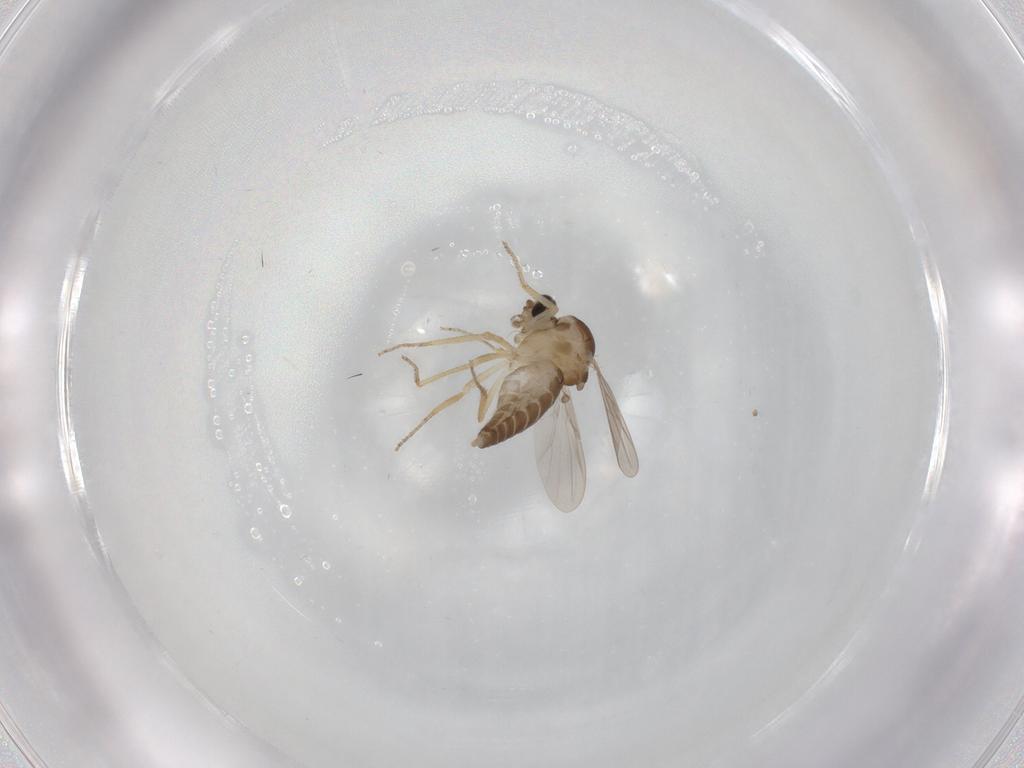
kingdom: Animalia
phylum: Arthropoda
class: Insecta
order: Diptera
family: Ceratopogonidae
